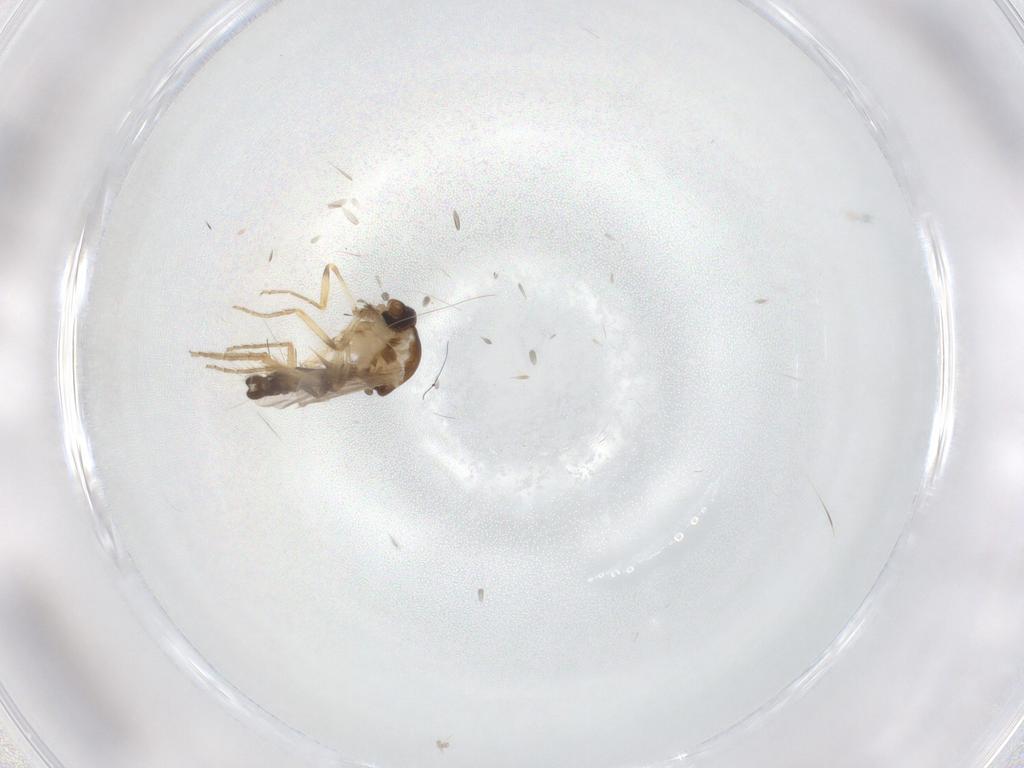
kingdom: Animalia
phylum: Arthropoda
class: Insecta
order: Diptera
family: Ceratopogonidae
